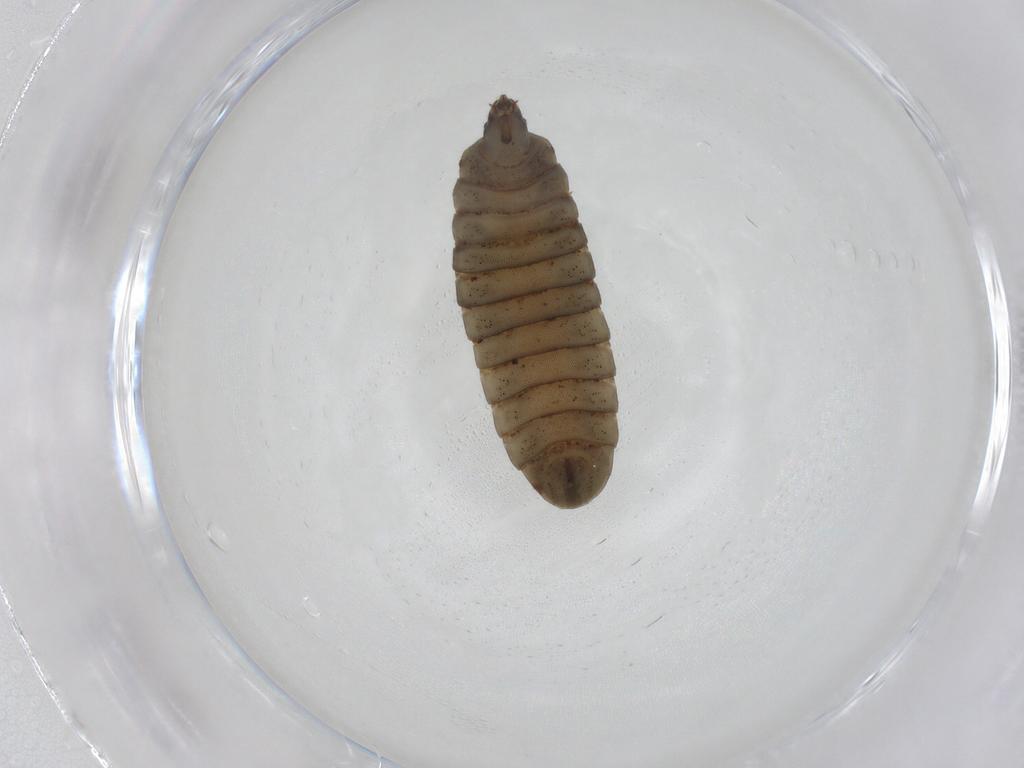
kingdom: Animalia
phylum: Arthropoda
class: Insecta
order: Diptera
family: Sciaridae
